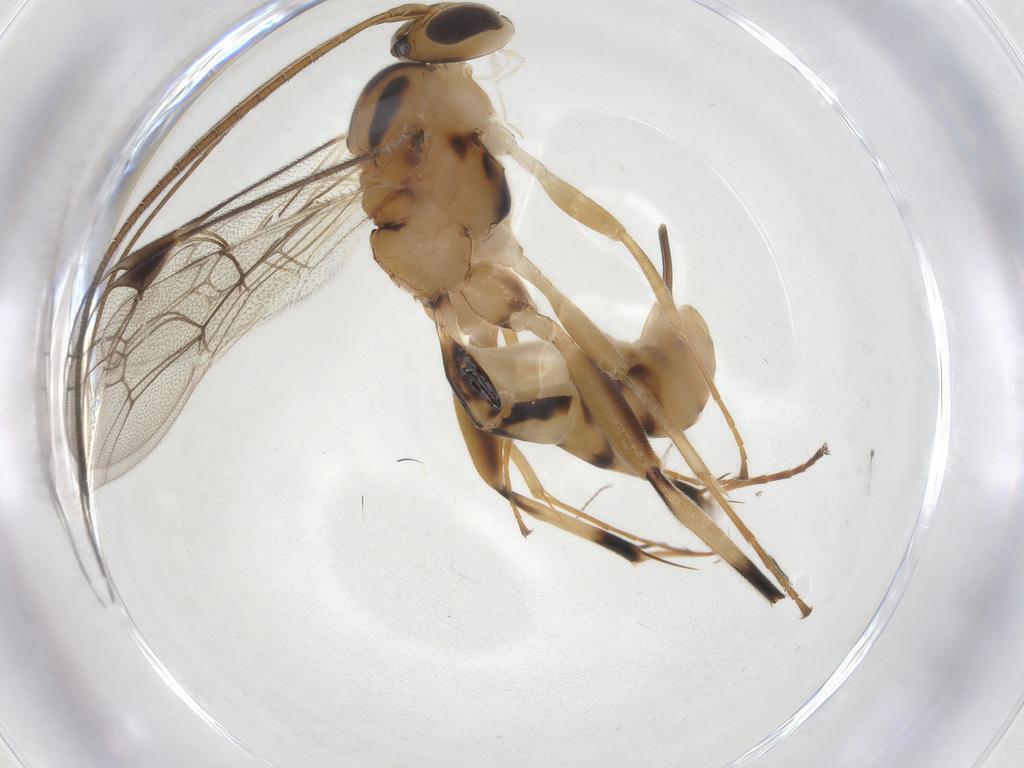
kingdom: Animalia
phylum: Arthropoda
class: Insecta
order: Hymenoptera
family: Ichneumonidae
